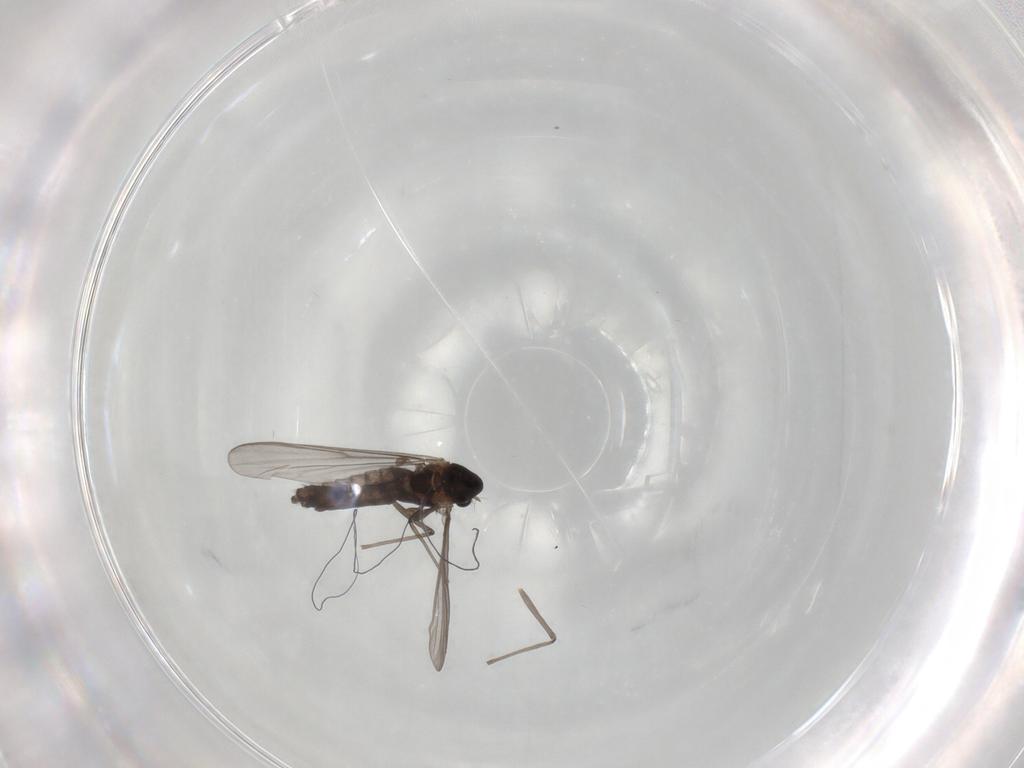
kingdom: Animalia
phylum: Arthropoda
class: Insecta
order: Diptera
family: Chironomidae
